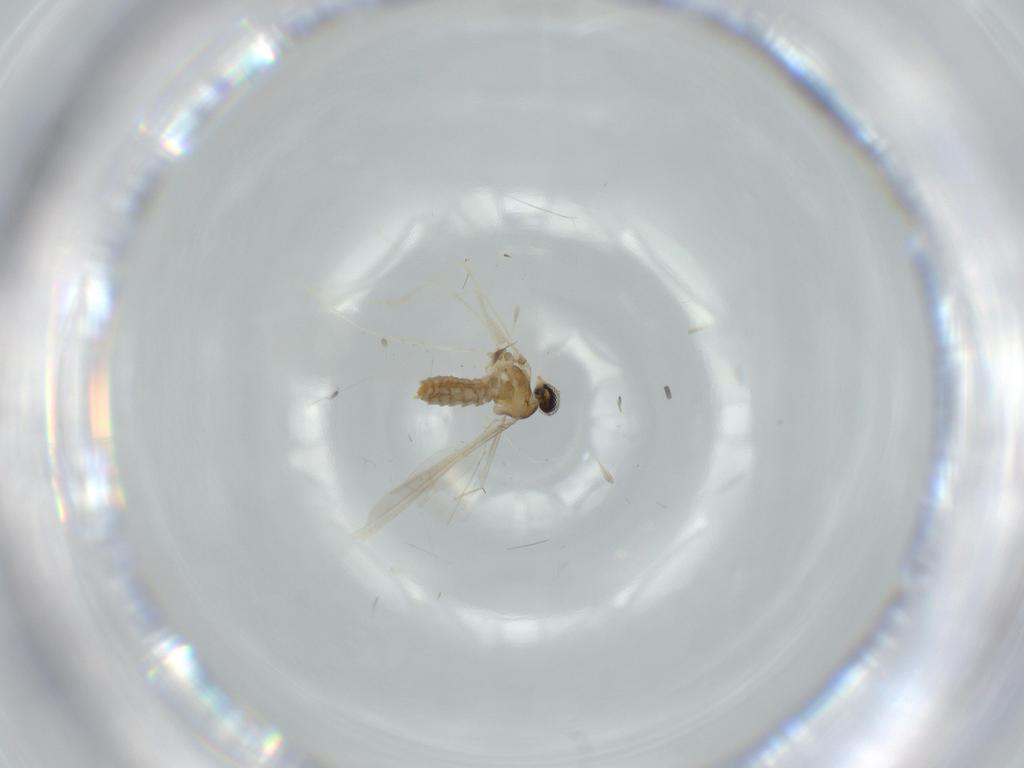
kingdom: Animalia
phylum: Arthropoda
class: Insecta
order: Diptera
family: Cecidomyiidae
